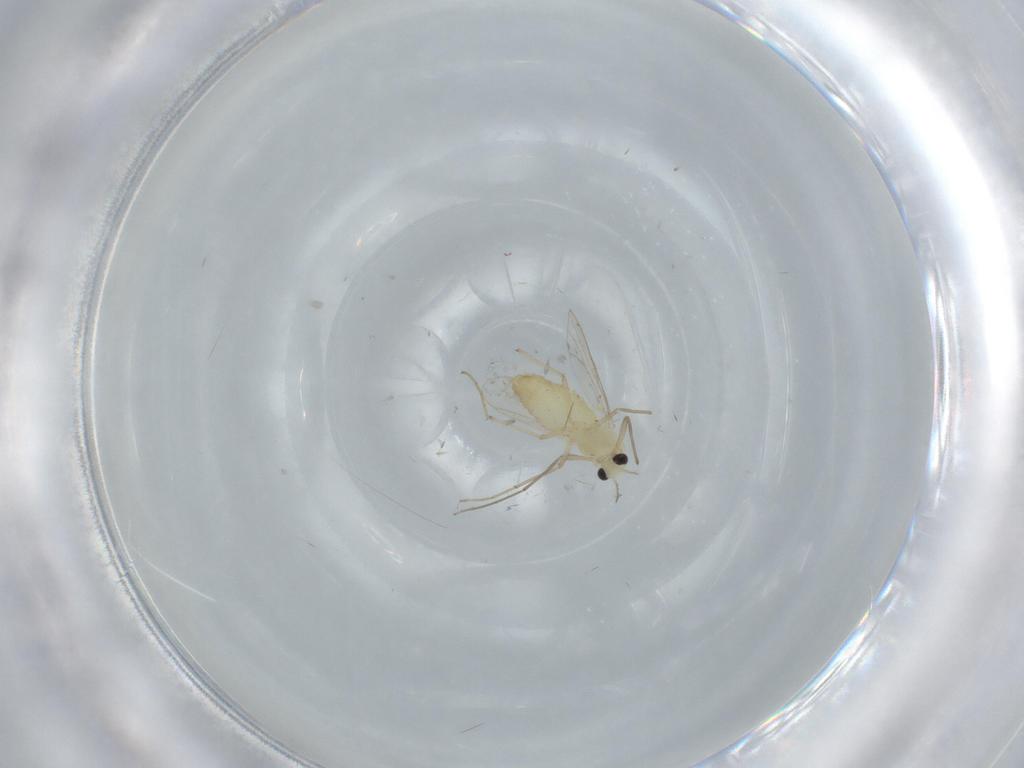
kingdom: Animalia
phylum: Arthropoda
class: Insecta
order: Diptera
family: Chironomidae
